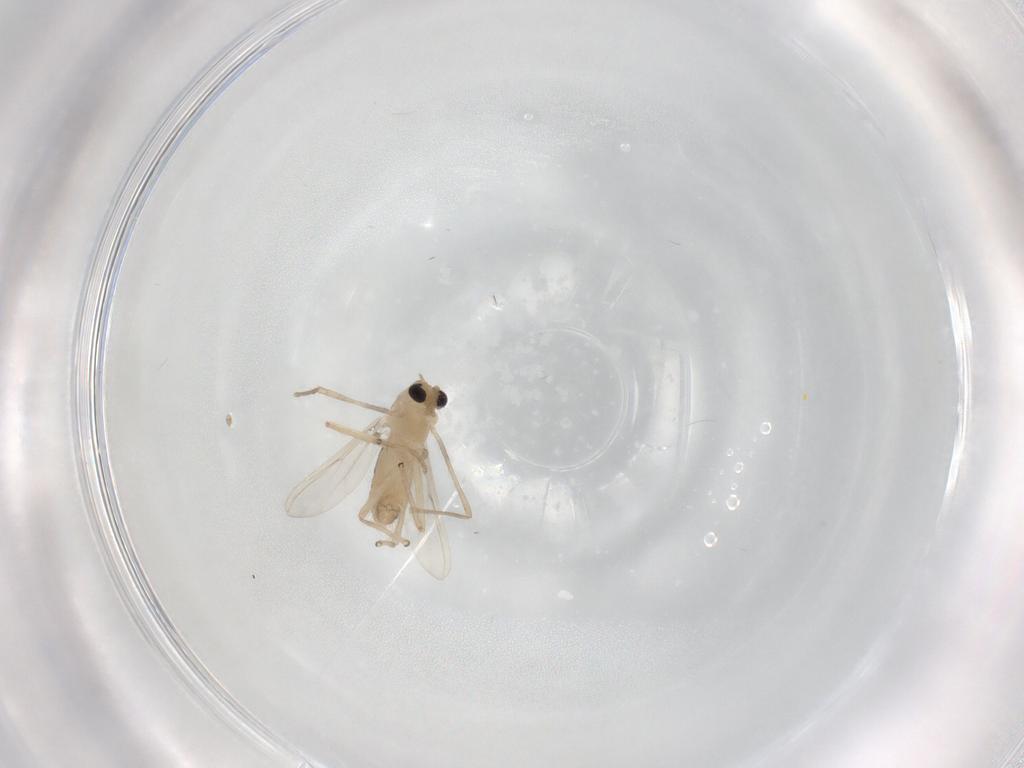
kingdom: Animalia
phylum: Arthropoda
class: Insecta
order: Diptera
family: Chironomidae
